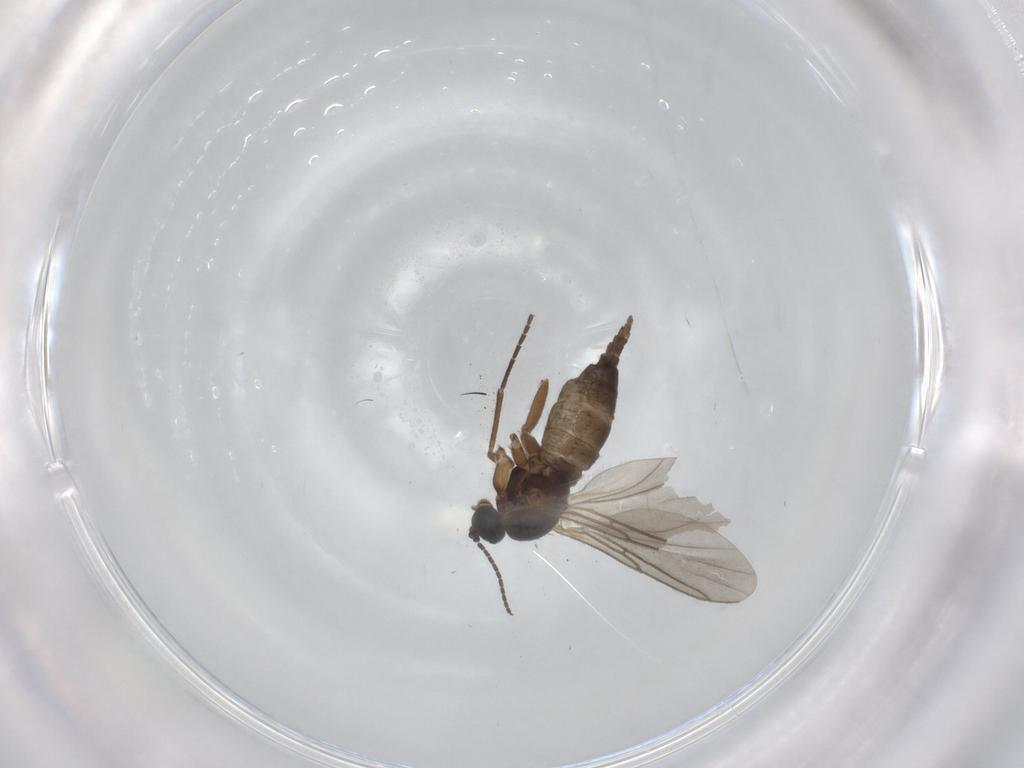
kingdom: Animalia
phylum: Arthropoda
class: Insecta
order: Diptera
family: Sciaridae
